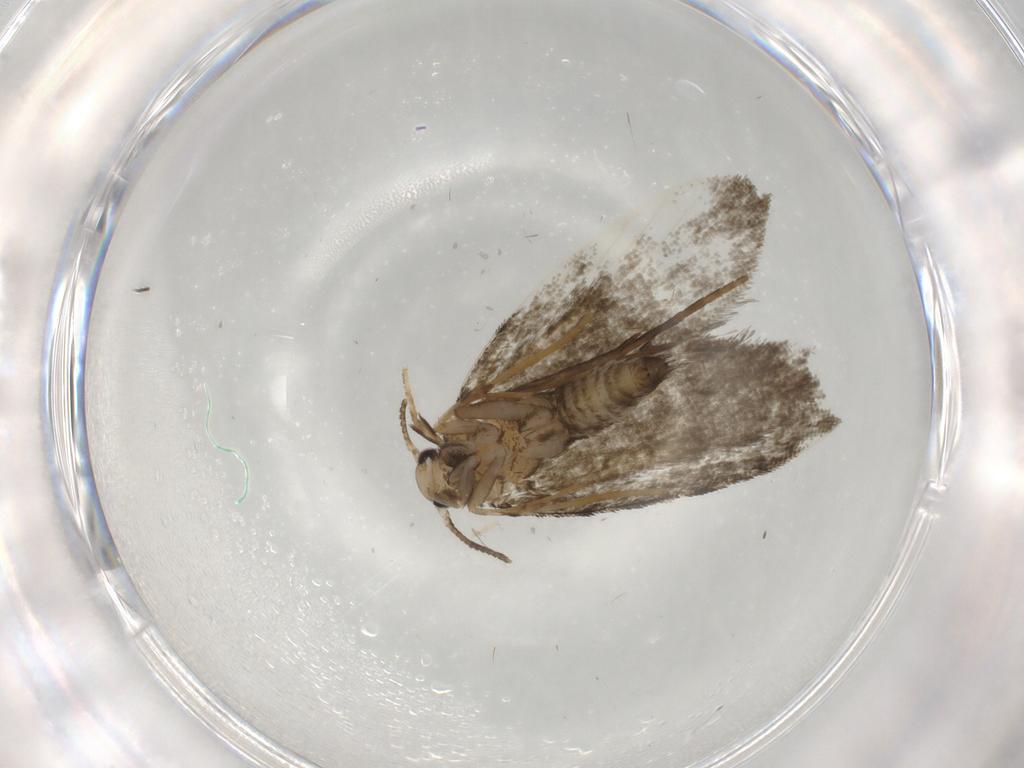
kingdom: Animalia
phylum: Arthropoda
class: Insecta
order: Lepidoptera
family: Psychidae
